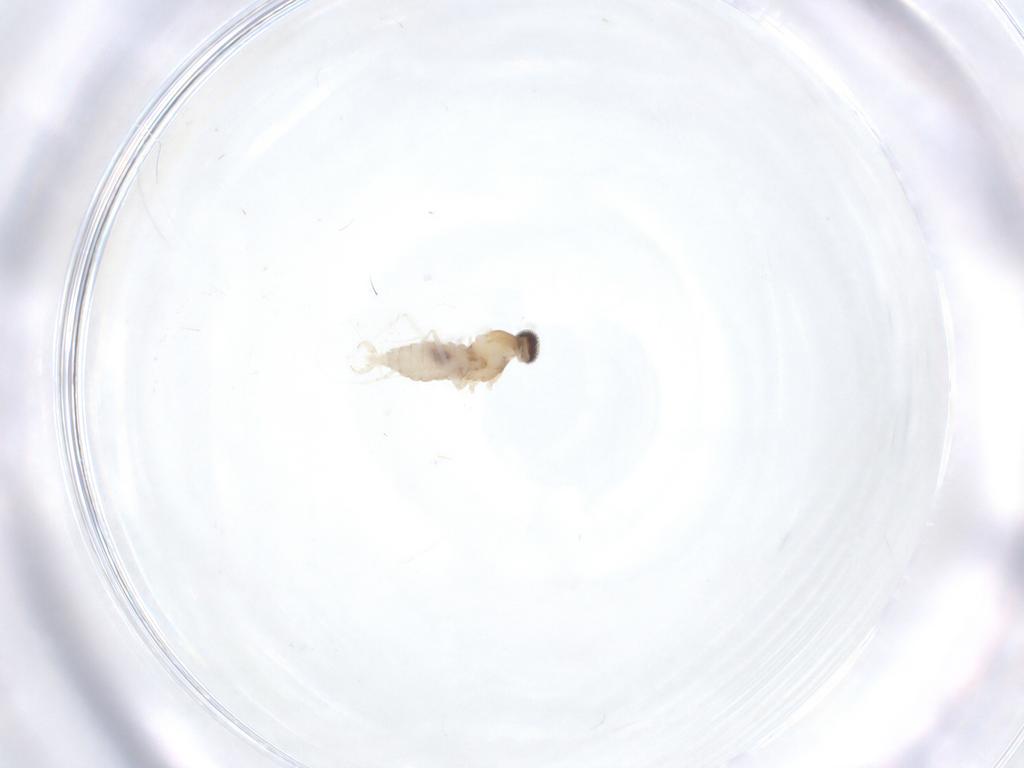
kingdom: Animalia
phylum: Arthropoda
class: Insecta
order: Diptera
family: Cecidomyiidae
